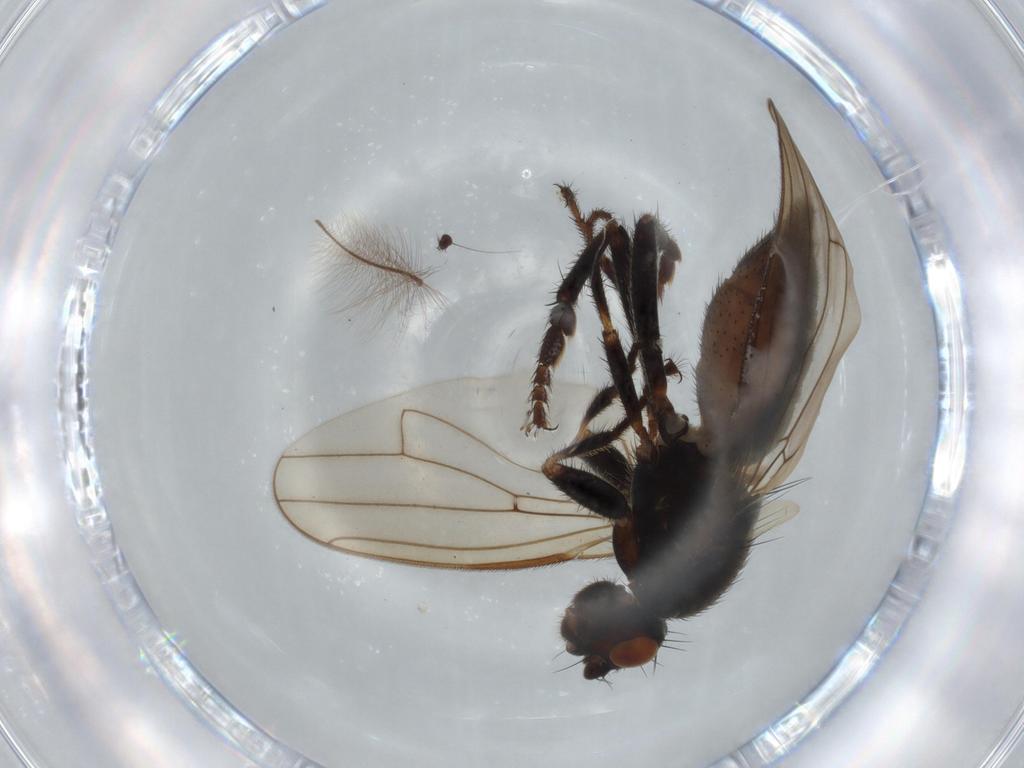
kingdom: Animalia
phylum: Arthropoda
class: Insecta
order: Diptera
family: Sphaeroceridae
